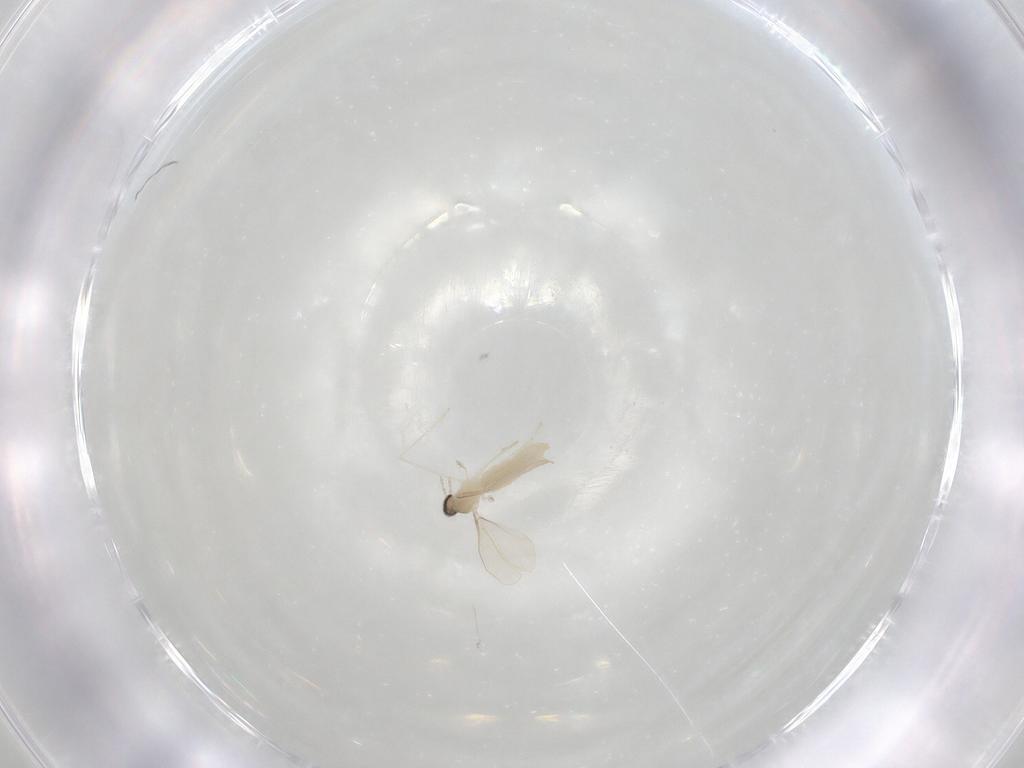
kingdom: Animalia
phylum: Arthropoda
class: Insecta
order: Diptera
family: Cecidomyiidae
